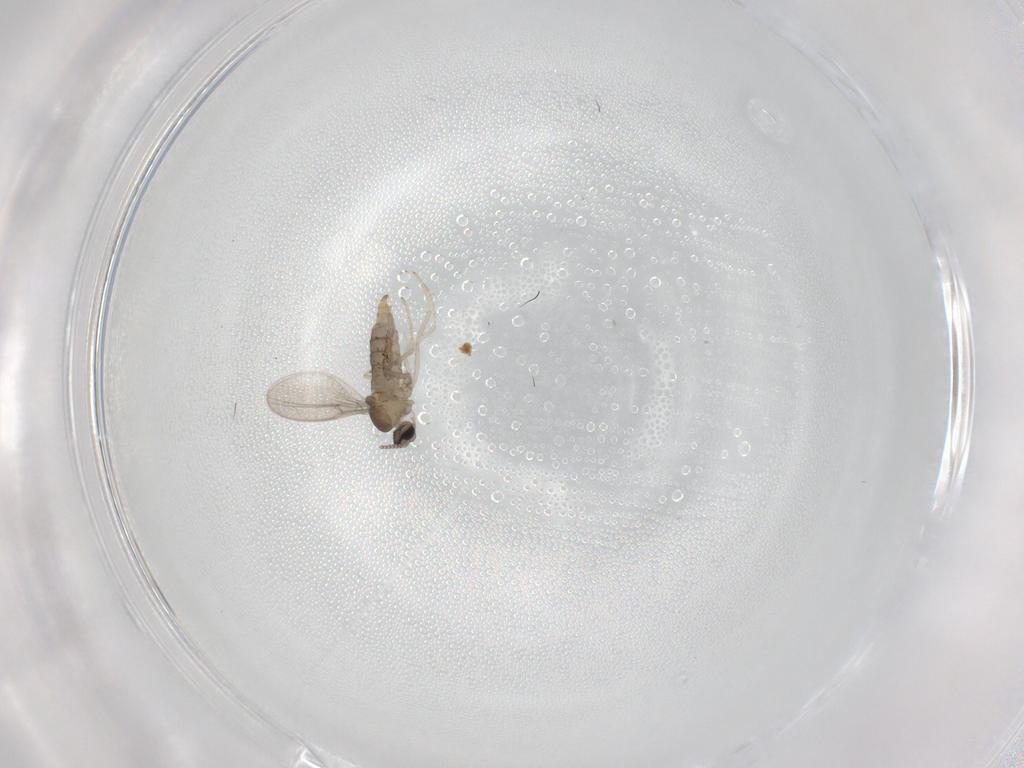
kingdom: Animalia
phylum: Arthropoda
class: Insecta
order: Diptera
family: Cecidomyiidae
